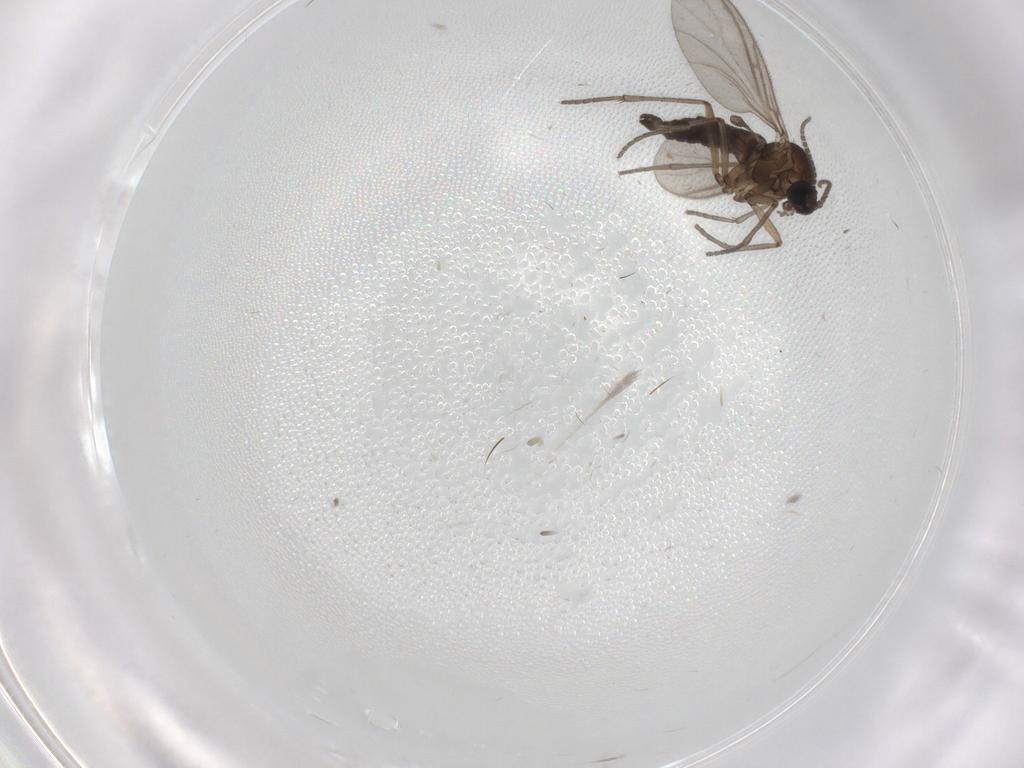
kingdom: Animalia
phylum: Arthropoda
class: Insecta
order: Diptera
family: Sciaridae
